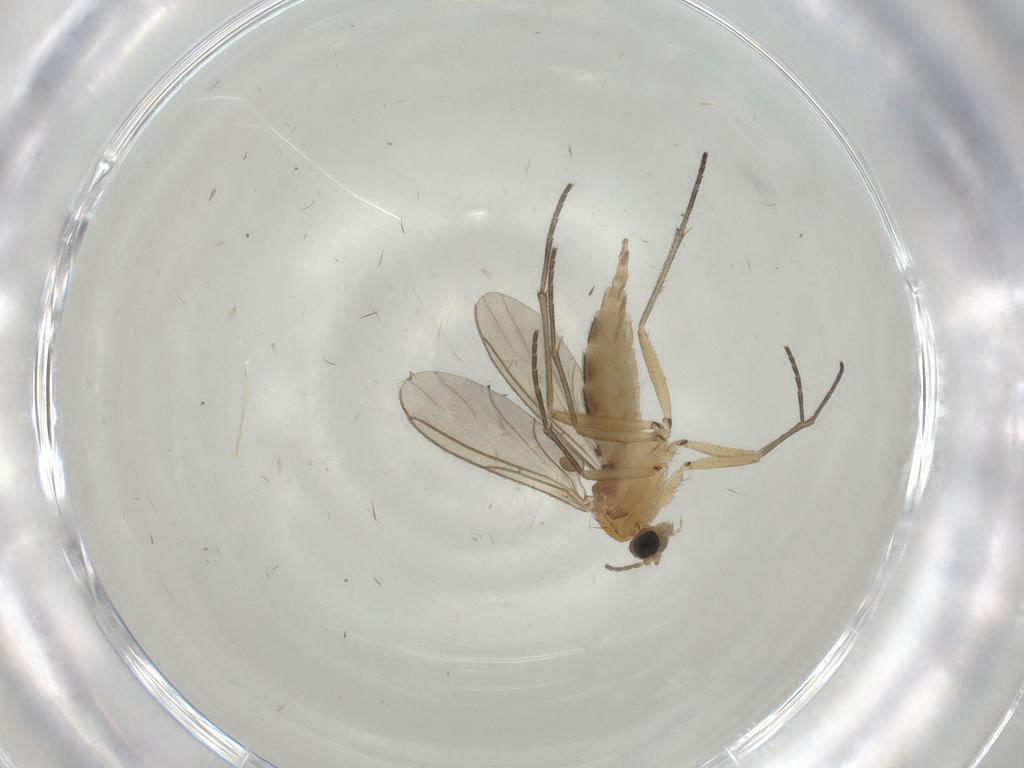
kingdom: Animalia
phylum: Arthropoda
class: Insecta
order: Diptera
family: Sciaridae
